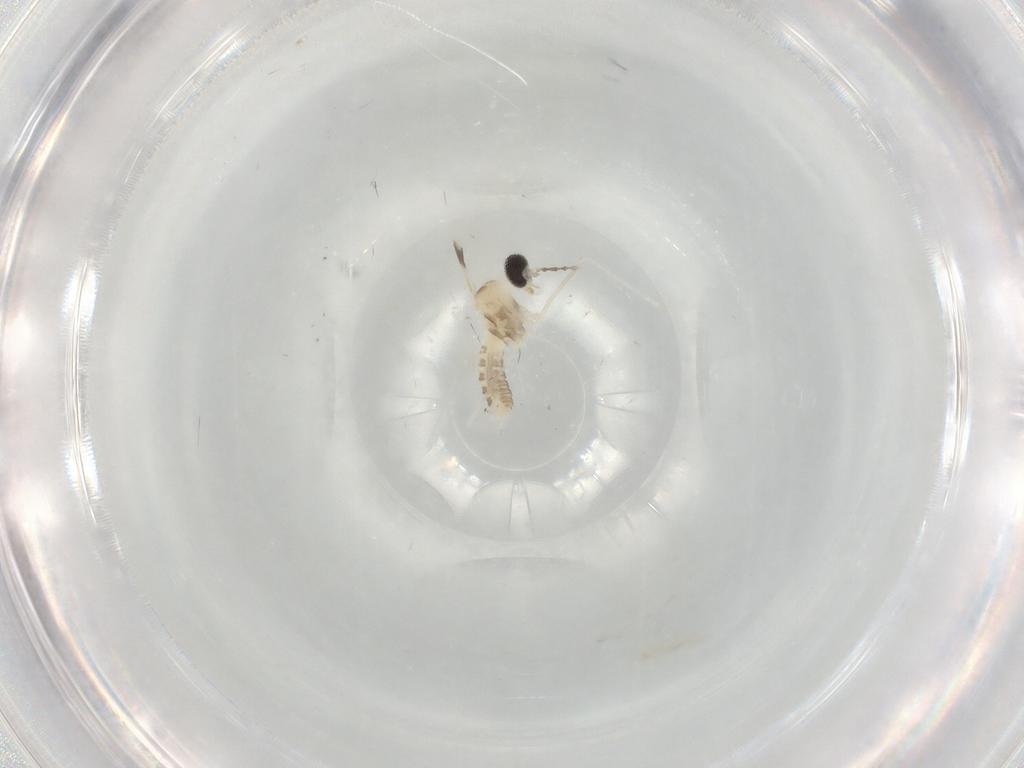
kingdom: Animalia
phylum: Arthropoda
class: Insecta
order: Diptera
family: Cecidomyiidae
